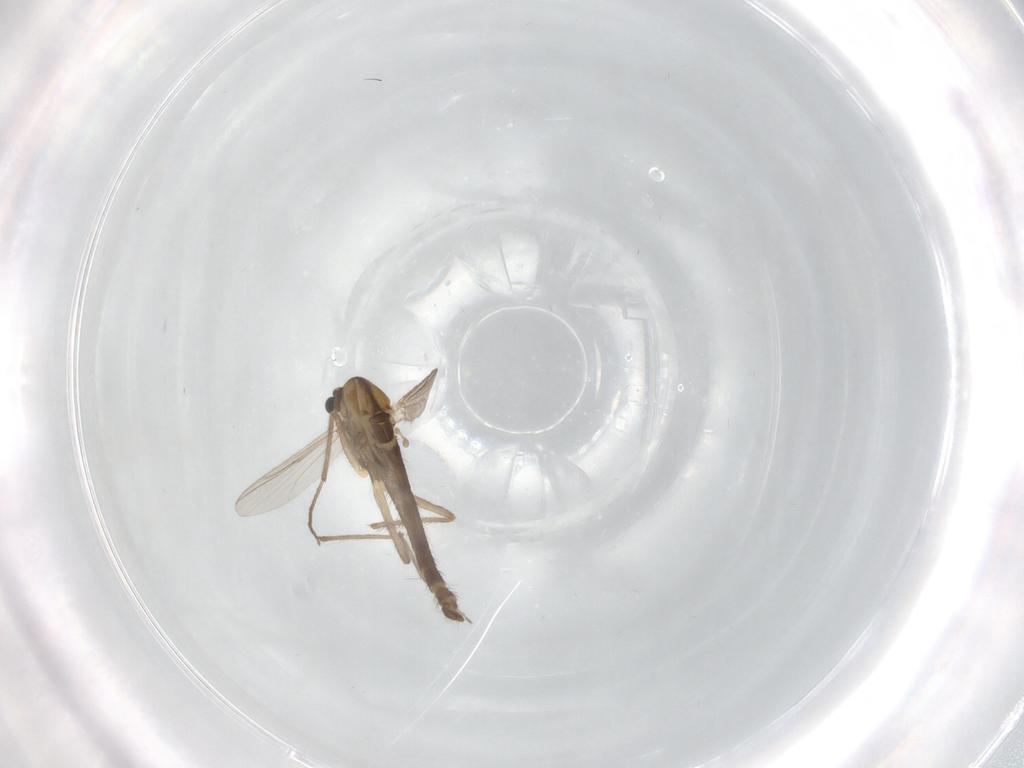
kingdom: Animalia
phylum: Arthropoda
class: Insecta
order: Diptera
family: Chironomidae
